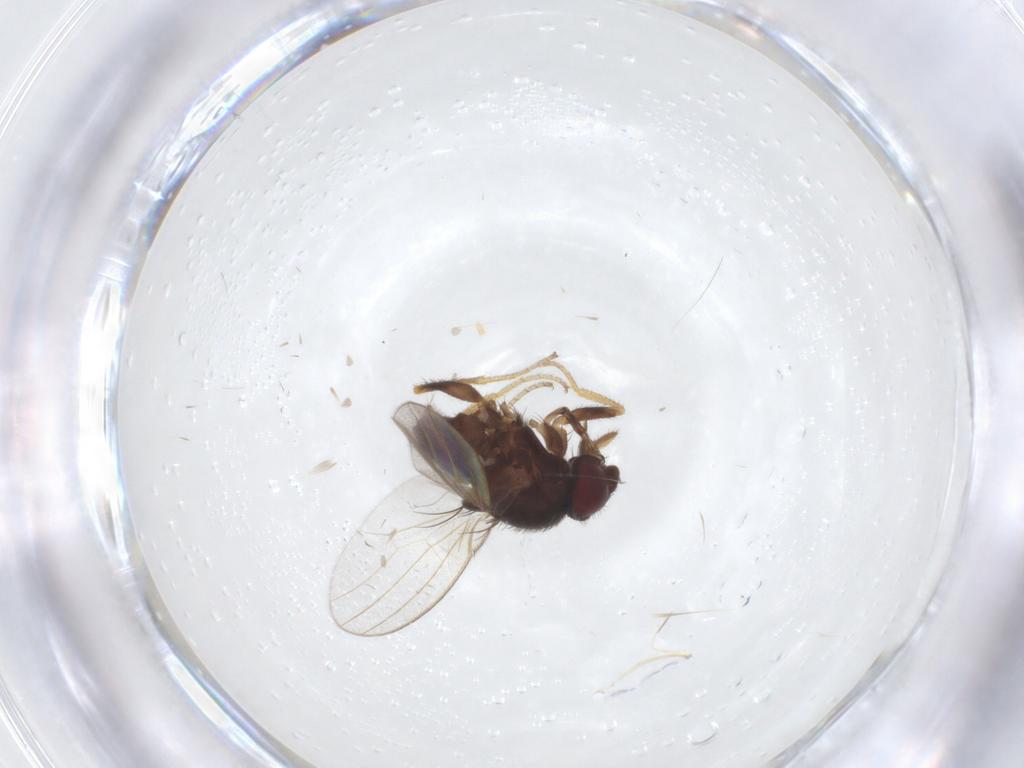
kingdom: Animalia
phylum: Arthropoda
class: Insecta
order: Diptera
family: Milichiidae
